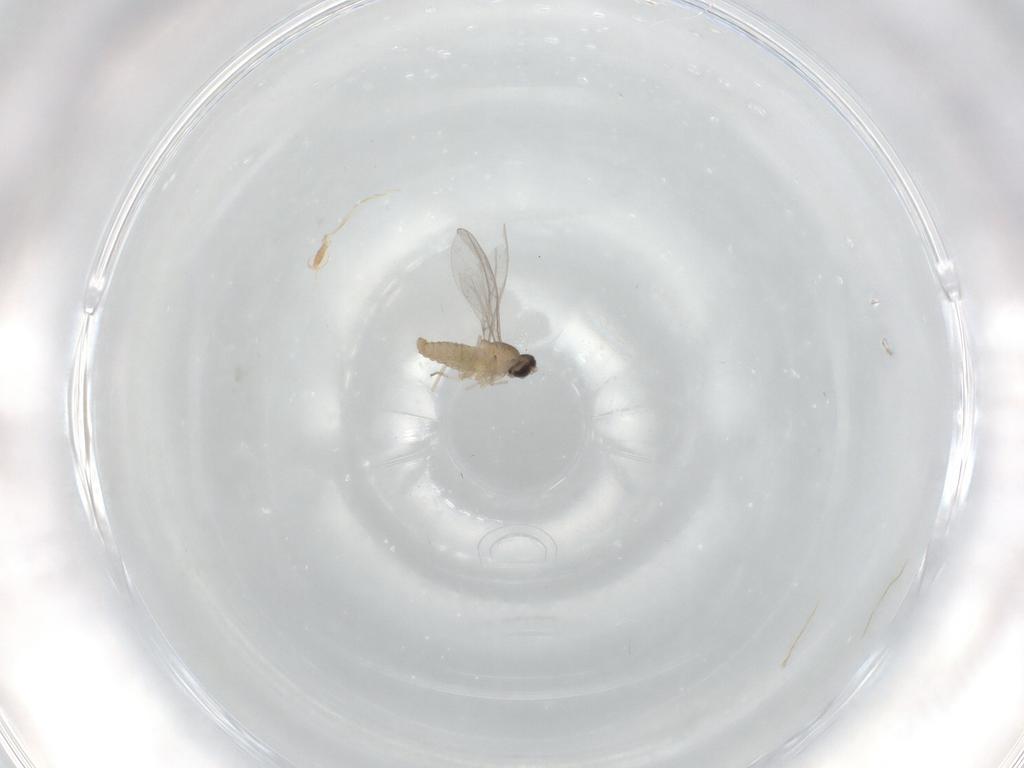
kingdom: Animalia
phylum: Arthropoda
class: Insecta
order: Diptera
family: Cecidomyiidae
